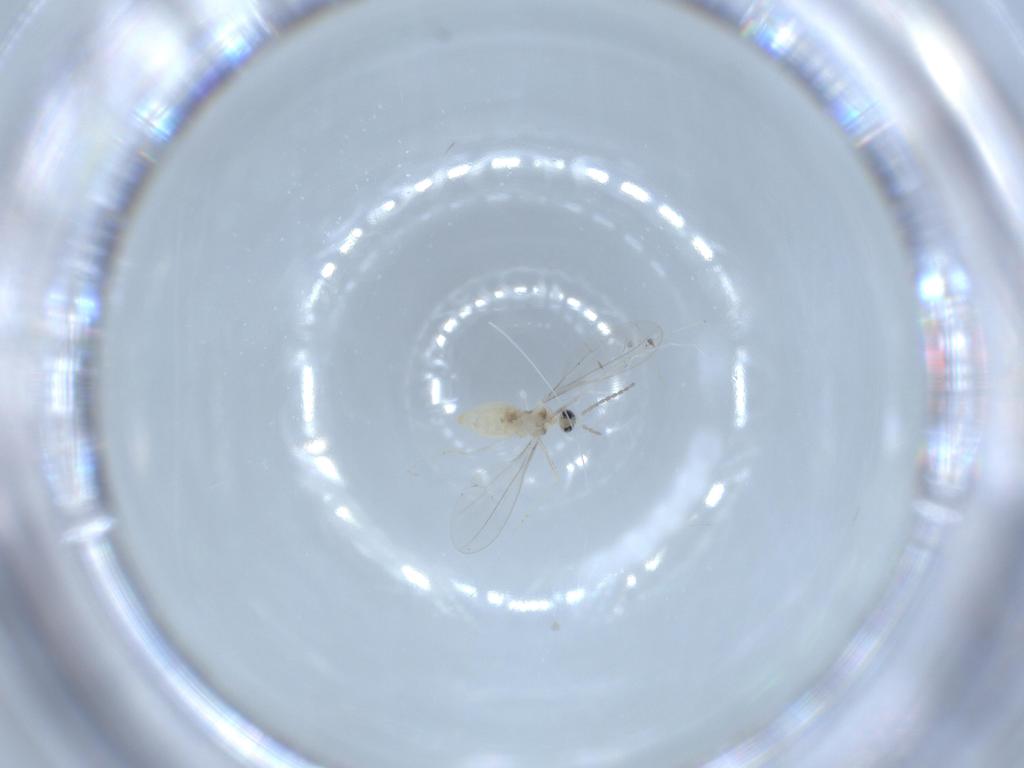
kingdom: Animalia
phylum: Arthropoda
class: Insecta
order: Diptera
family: Cecidomyiidae
